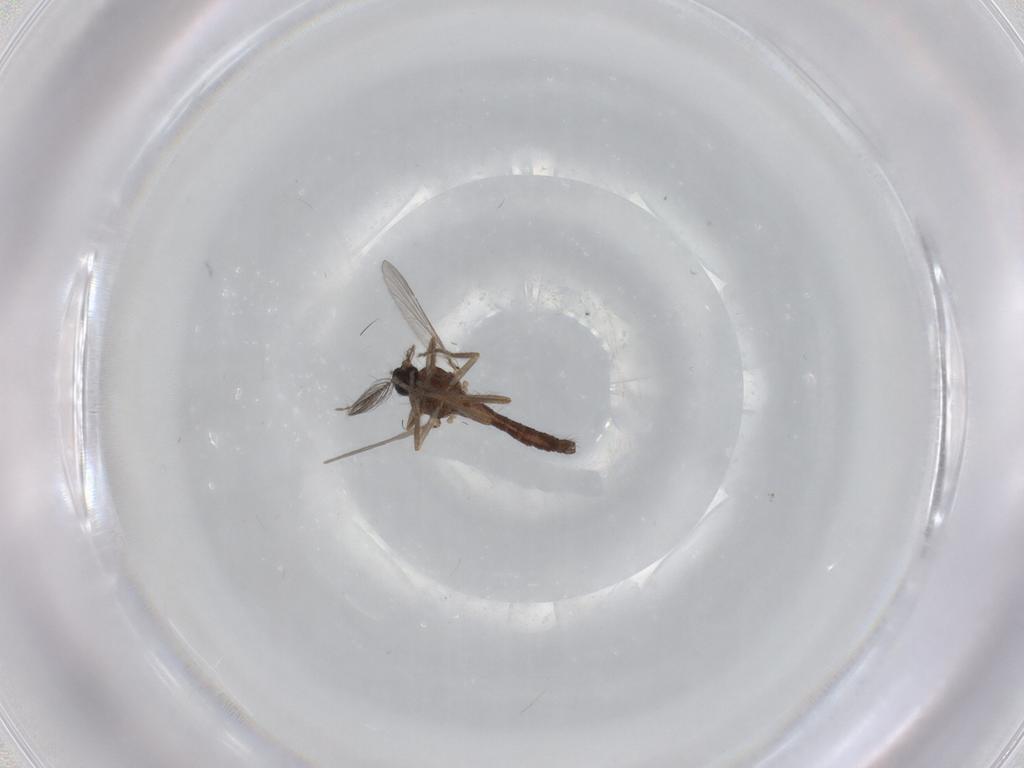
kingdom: Animalia
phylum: Arthropoda
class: Insecta
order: Diptera
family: Ceratopogonidae
